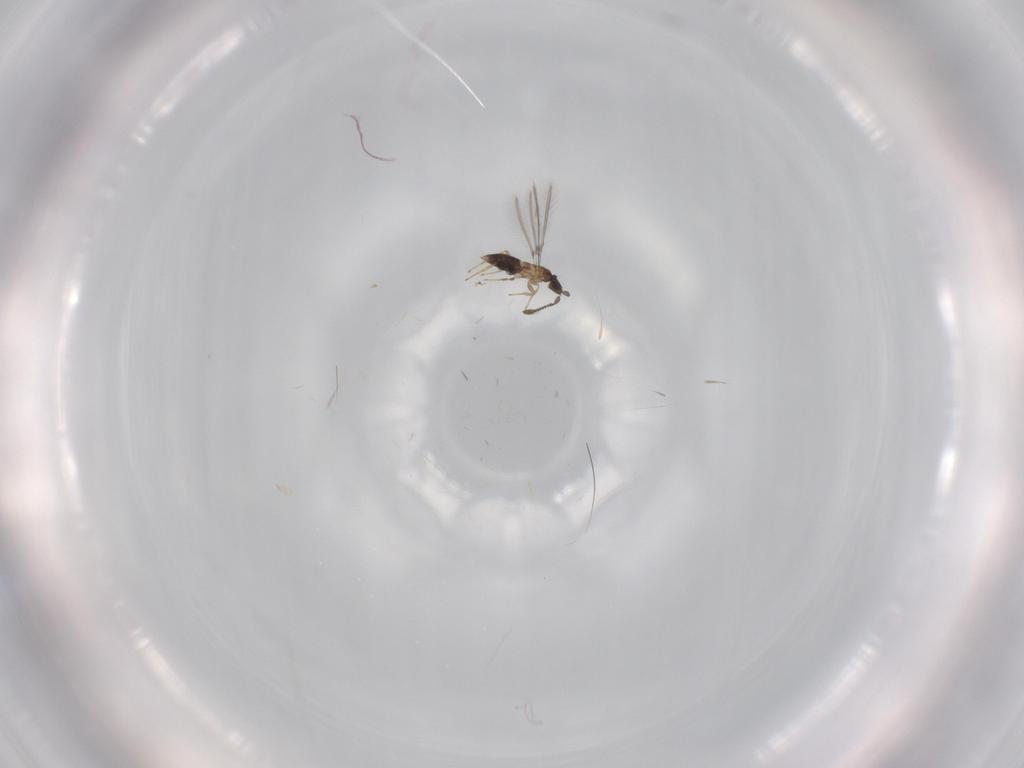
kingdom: Animalia
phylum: Arthropoda
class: Insecta
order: Hymenoptera
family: Mymaridae
